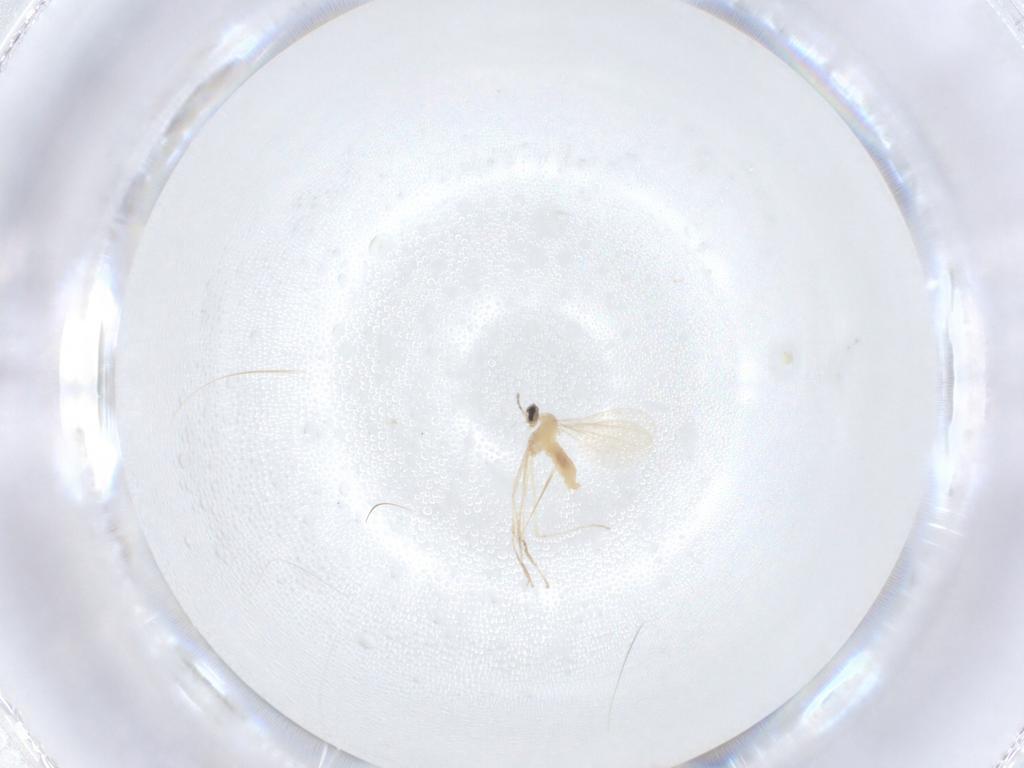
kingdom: Animalia
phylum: Arthropoda
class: Insecta
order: Diptera
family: Cecidomyiidae
